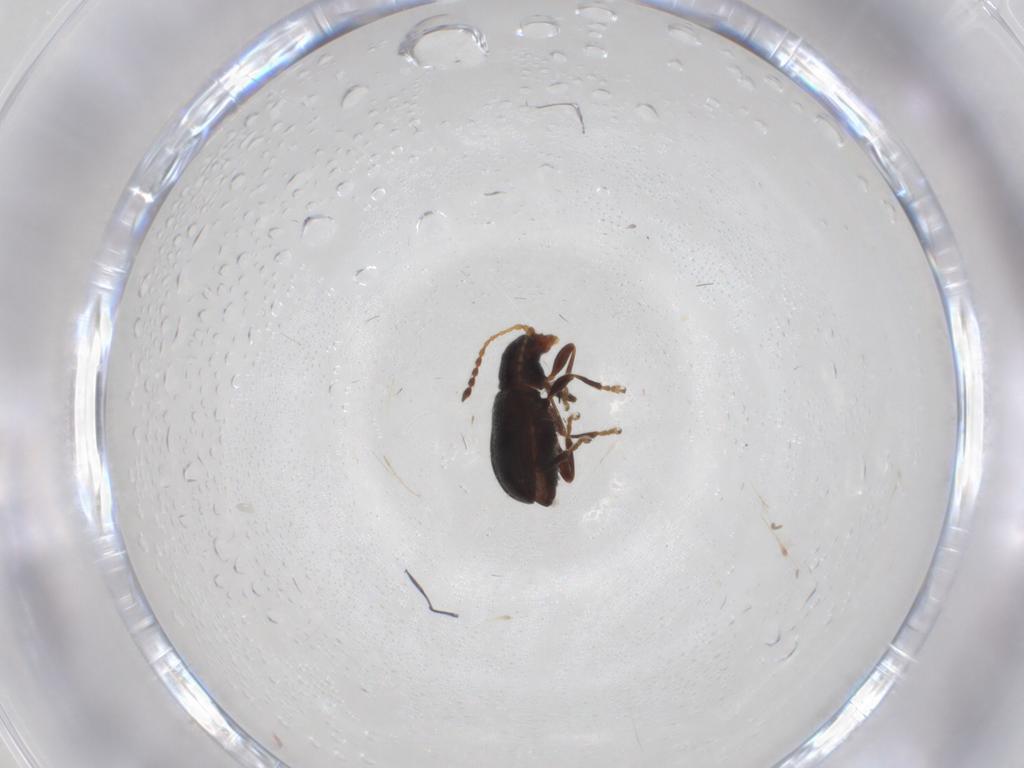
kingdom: Animalia
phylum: Arthropoda
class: Insecta
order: Coleoptera
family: Chrysomelidae
